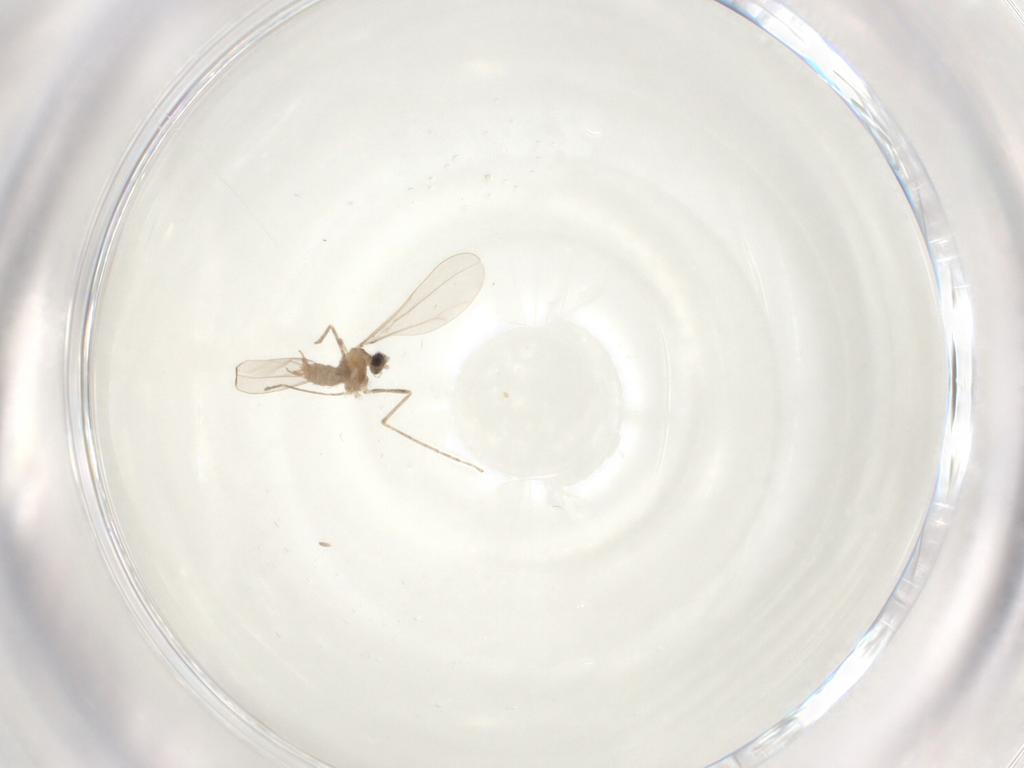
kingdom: Animalia
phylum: Arthropoda
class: Insecta
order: Diptera
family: Cecidomyiidae
